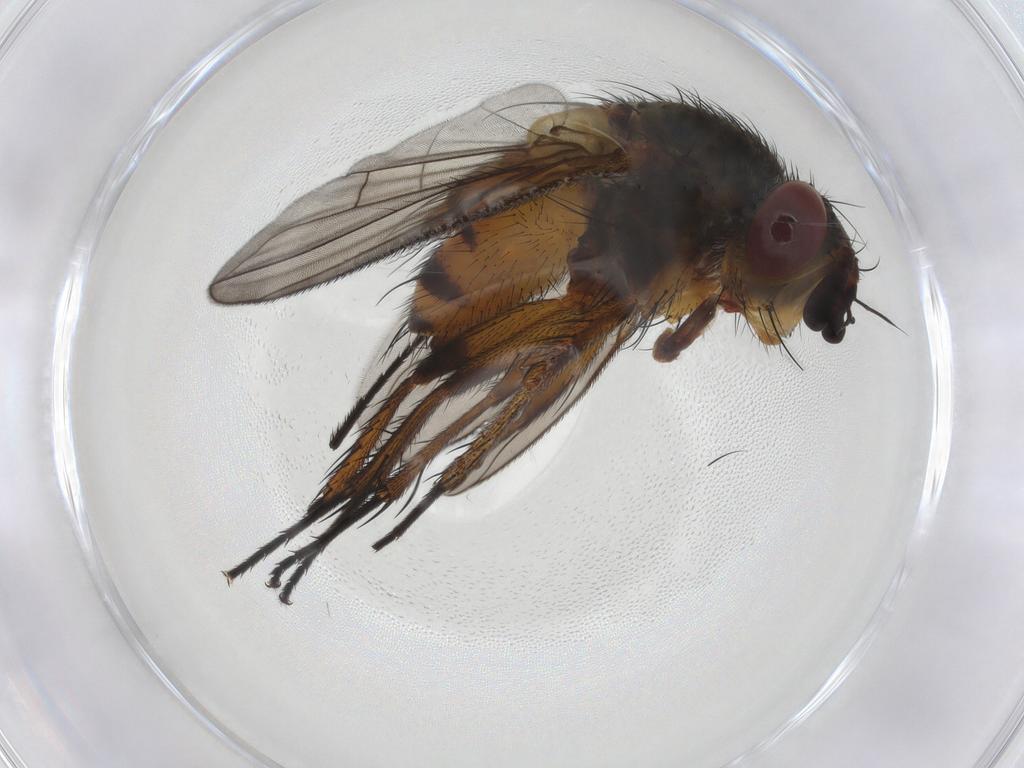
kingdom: Animalia
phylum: Arthropoda
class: Insecta
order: Diptera
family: Tachinidae
